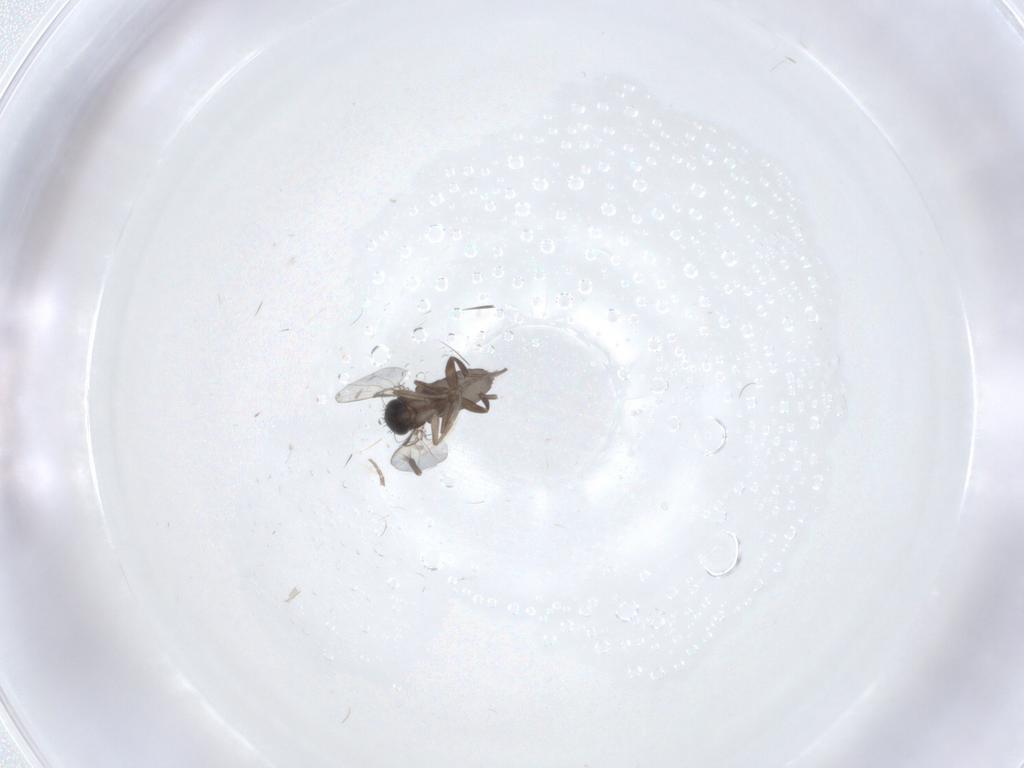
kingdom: Animalia
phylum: Arthropoda
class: Insecta
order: Diptera
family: Phoridae
